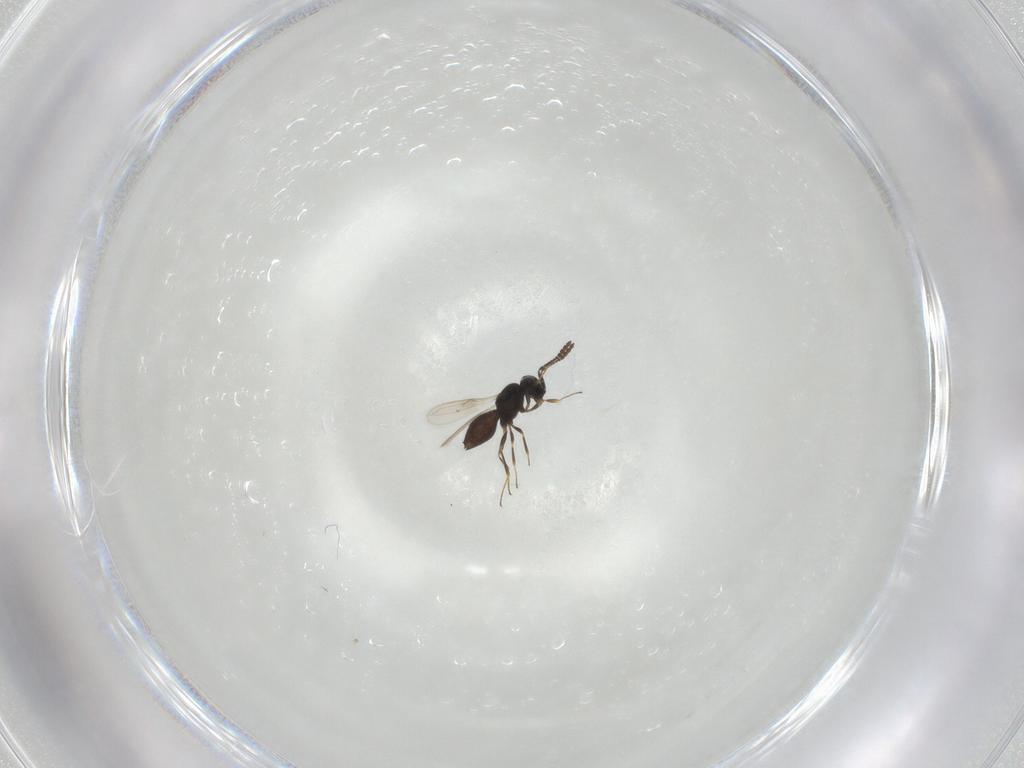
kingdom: Animalia
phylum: Arthropoda
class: Insecta
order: Hymenoptera
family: Scelionidae
